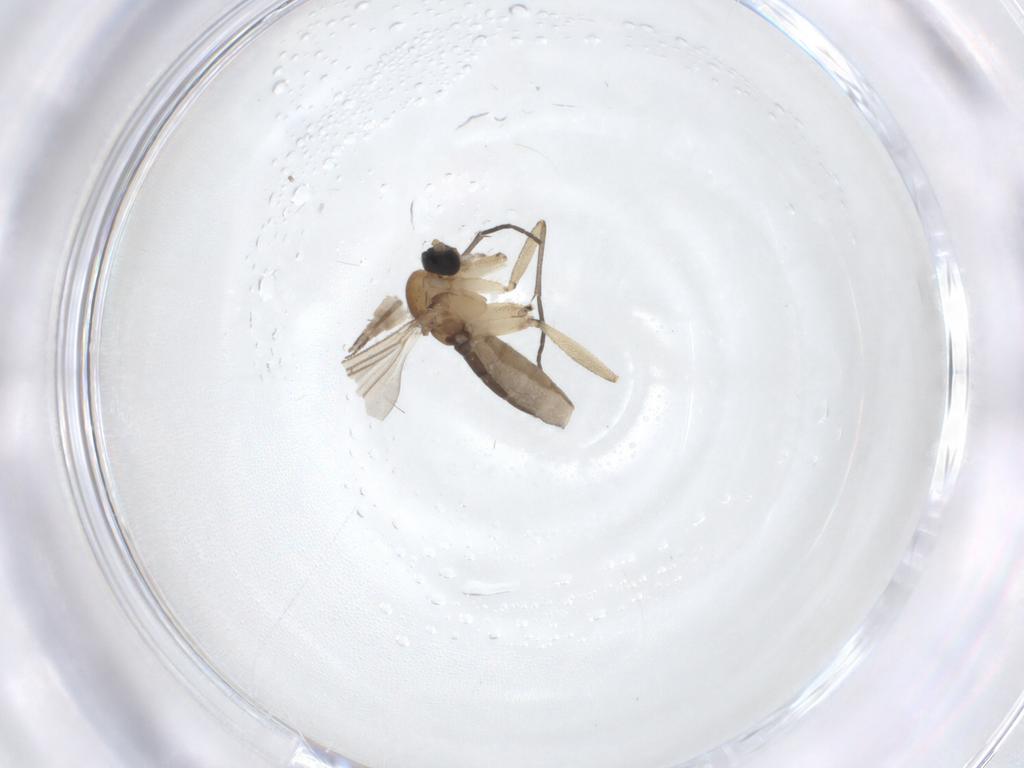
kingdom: Animalia
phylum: Arthropoda
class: Insecta
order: Diptera
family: Sciaridae
